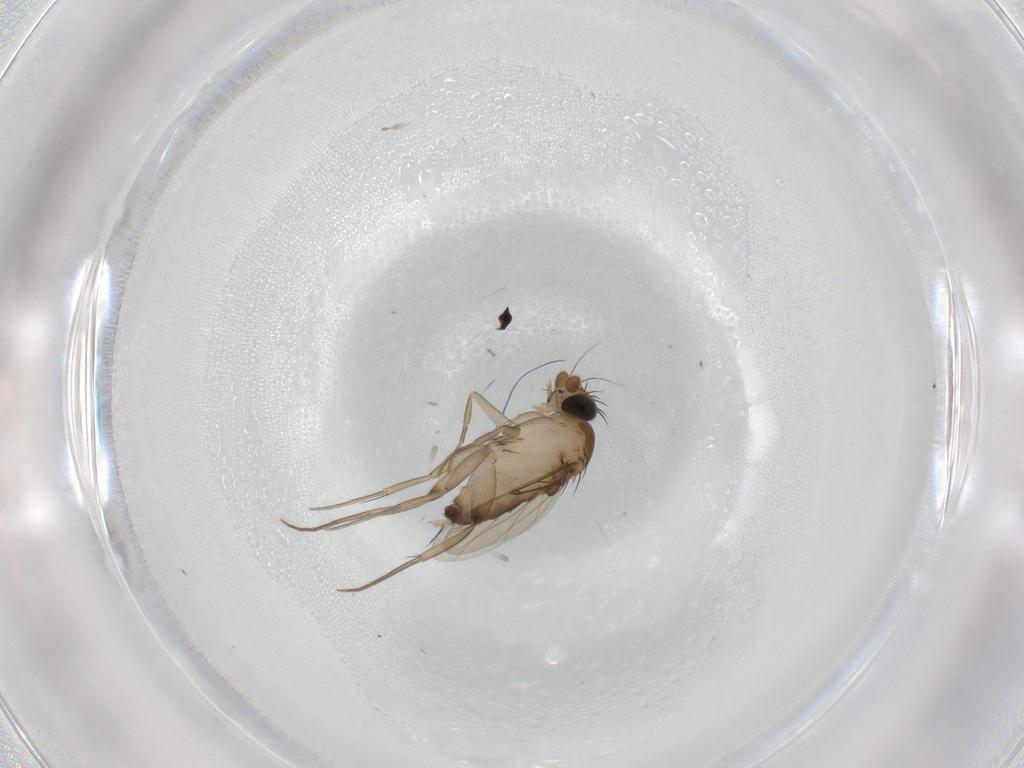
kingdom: Animalia
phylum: Arthropoda
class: Insecta
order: Diptera
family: Phoridae
